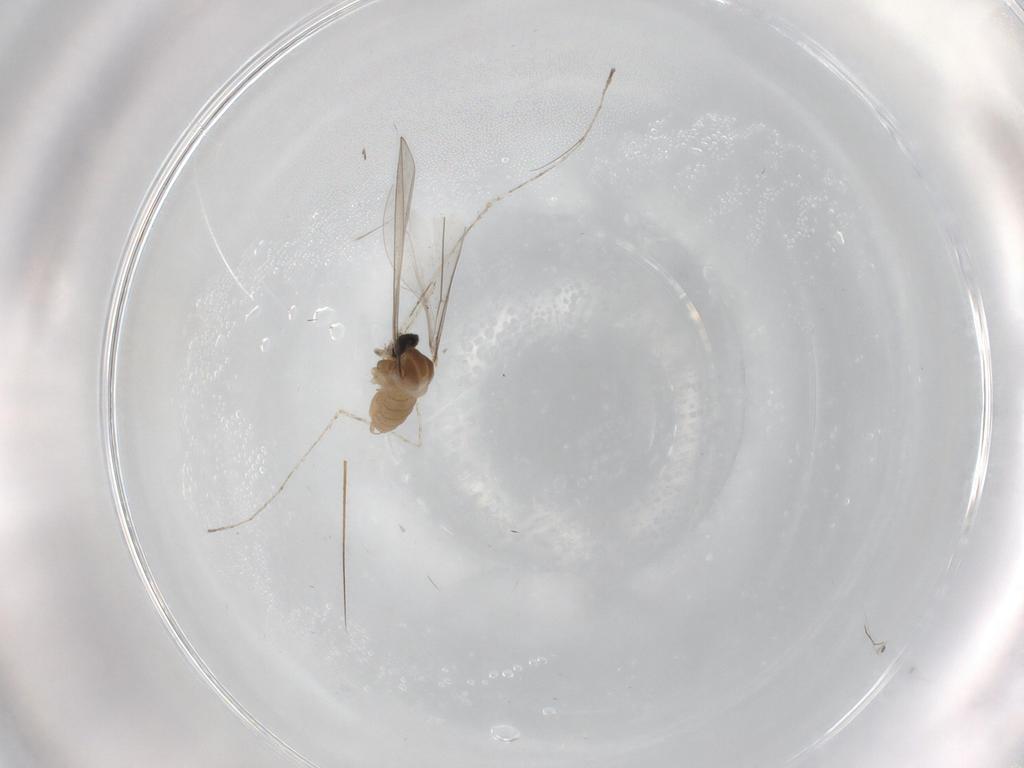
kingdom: Animalia
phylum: Arthropoda
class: Insecta
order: Diptera
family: Cecidomyiidae
